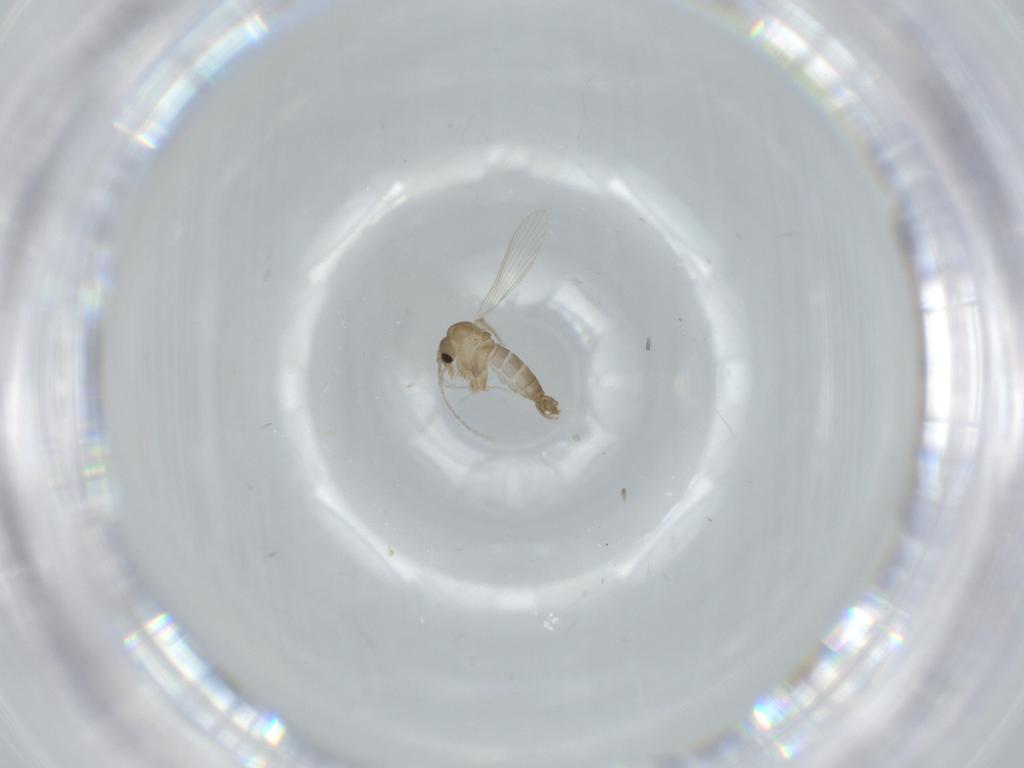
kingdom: Animalia
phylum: Arthropoda
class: Insecta
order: Diptera
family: Psychodidae
